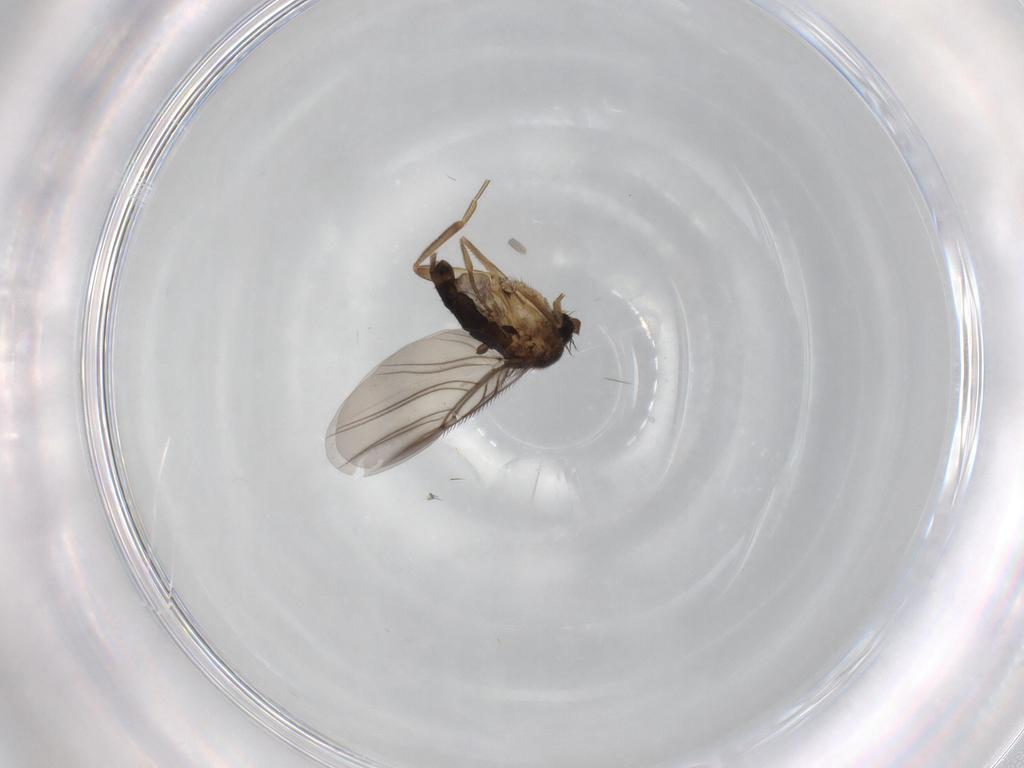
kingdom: Animalia
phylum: Arthropoda
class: Insecta
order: Diptera
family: Phoridae
